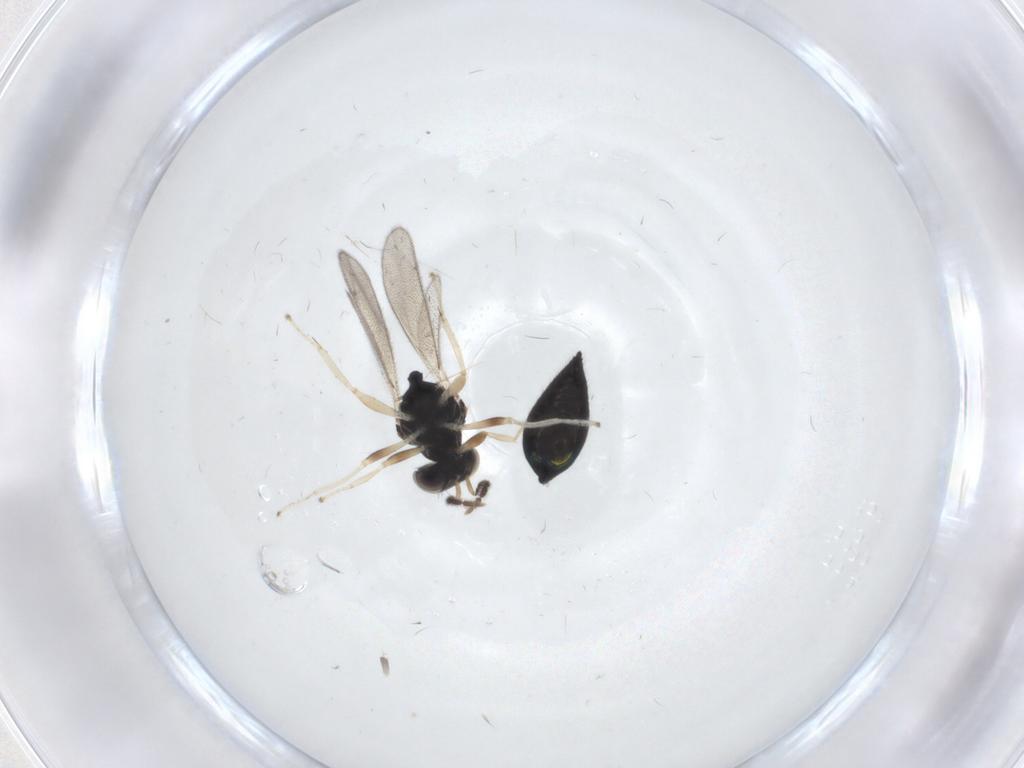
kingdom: Animalia
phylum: Arthropoda
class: Insecta
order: Hymenoptera
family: Eulophidae
